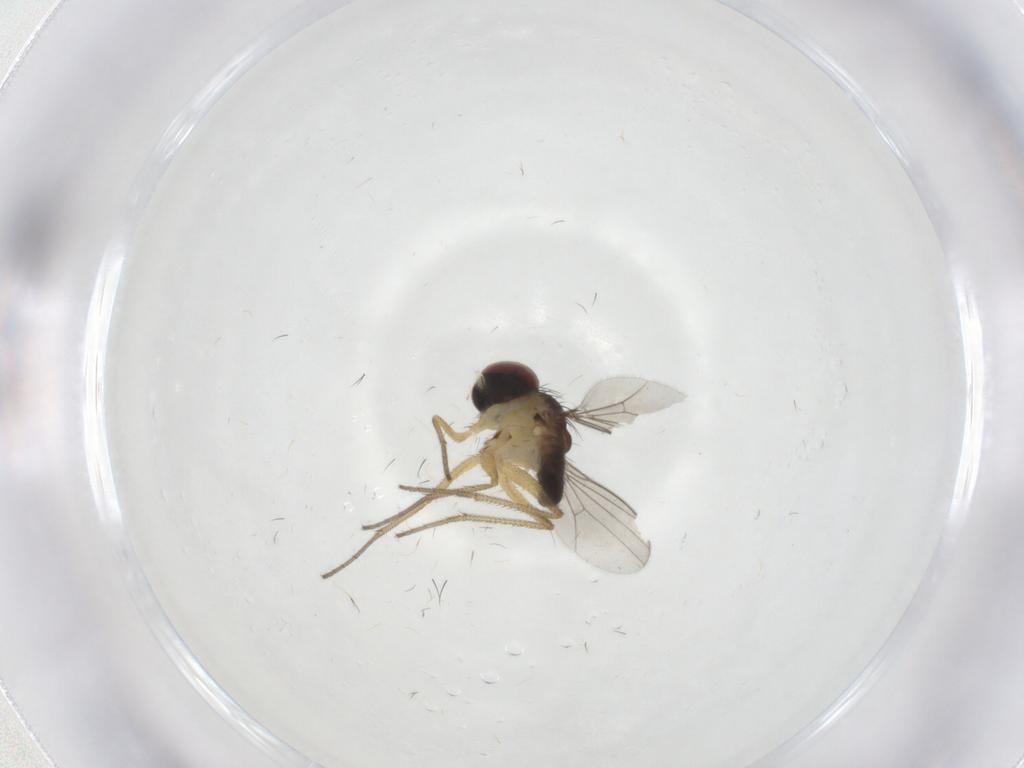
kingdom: Animalia
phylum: Arthropoda
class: Insecta
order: Diptera
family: Dolichopodidae
